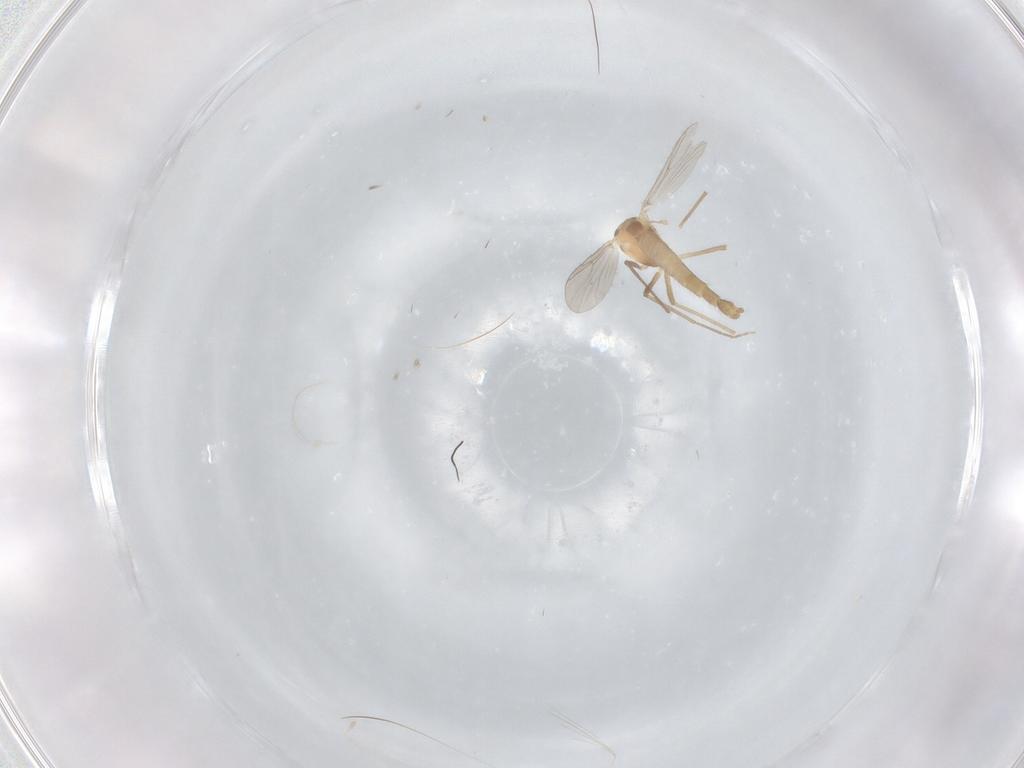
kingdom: Animalia
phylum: Arthropoda
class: Insecta
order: Diptera
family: Chironomidae
